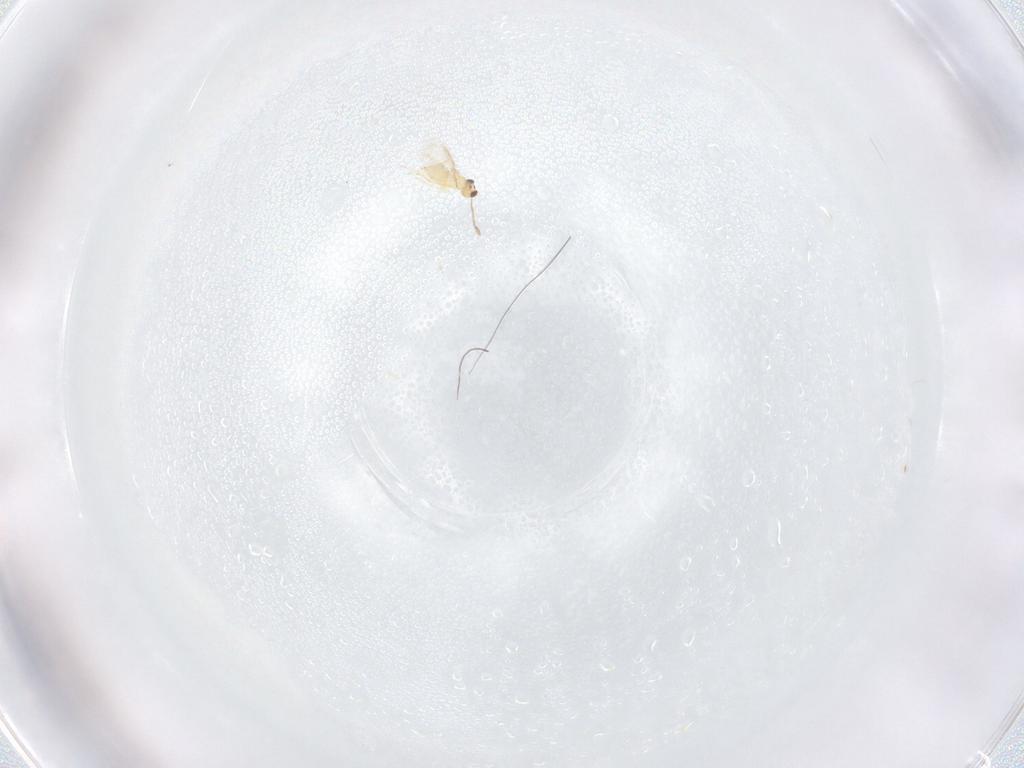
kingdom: Animalia
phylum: Arthropoda
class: Insecta
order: Hymenoptera
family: Mymaridae
